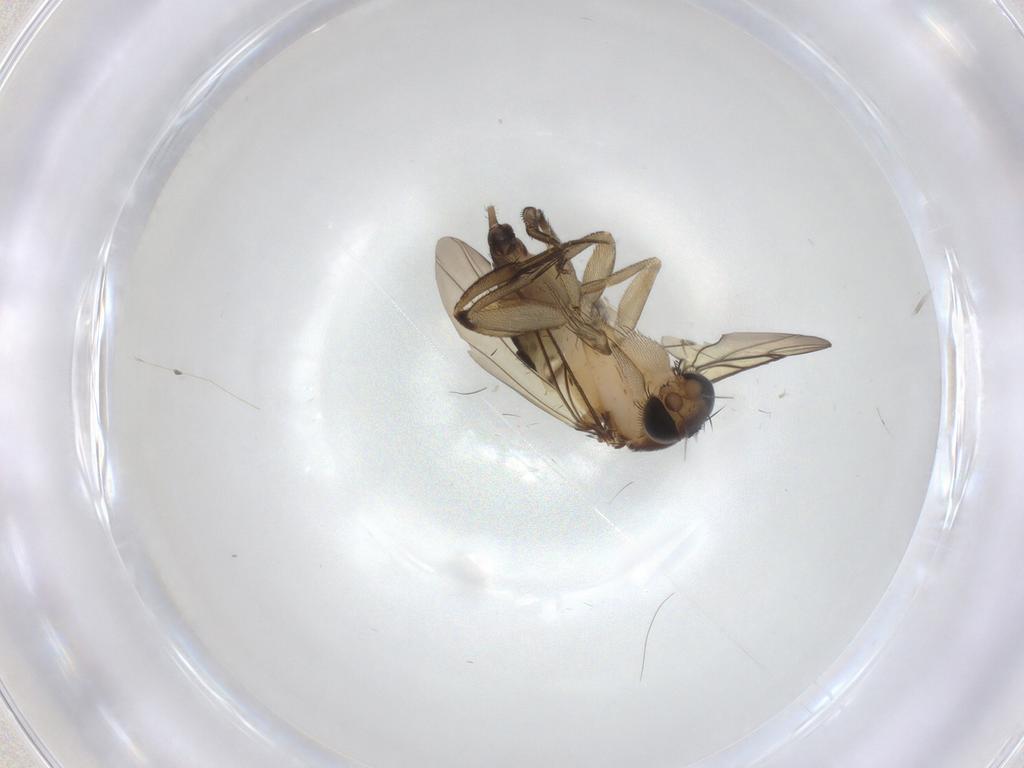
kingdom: Animalia
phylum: Arthropoda
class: Insecta
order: Diptera
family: Phoridae
